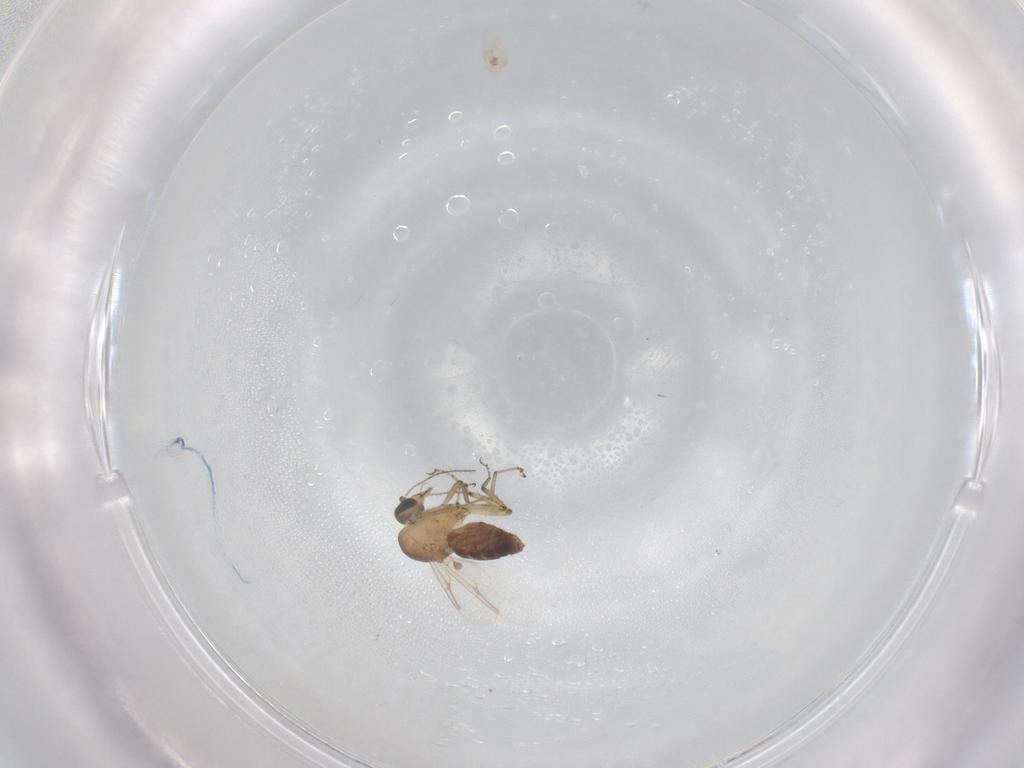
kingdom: Animalia
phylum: Arthropoda
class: Insecta
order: Diptera
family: Ceratopogonidae
